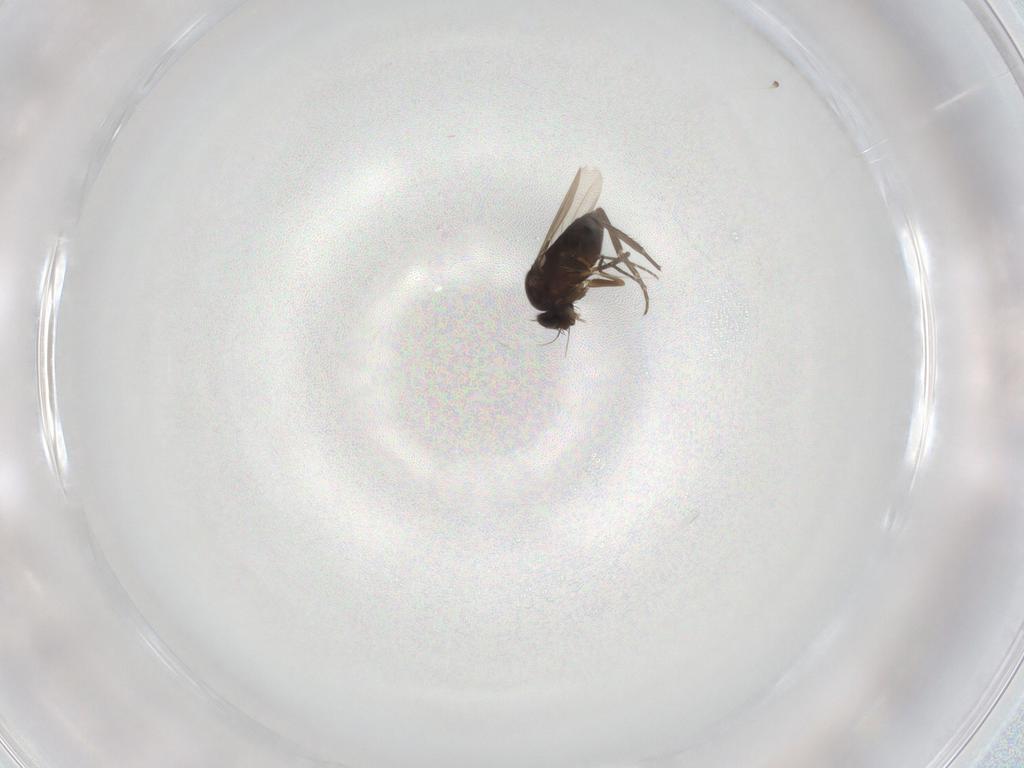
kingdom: Animalia
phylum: Arthropoda
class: Insecta
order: Diptera
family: Phoridae
